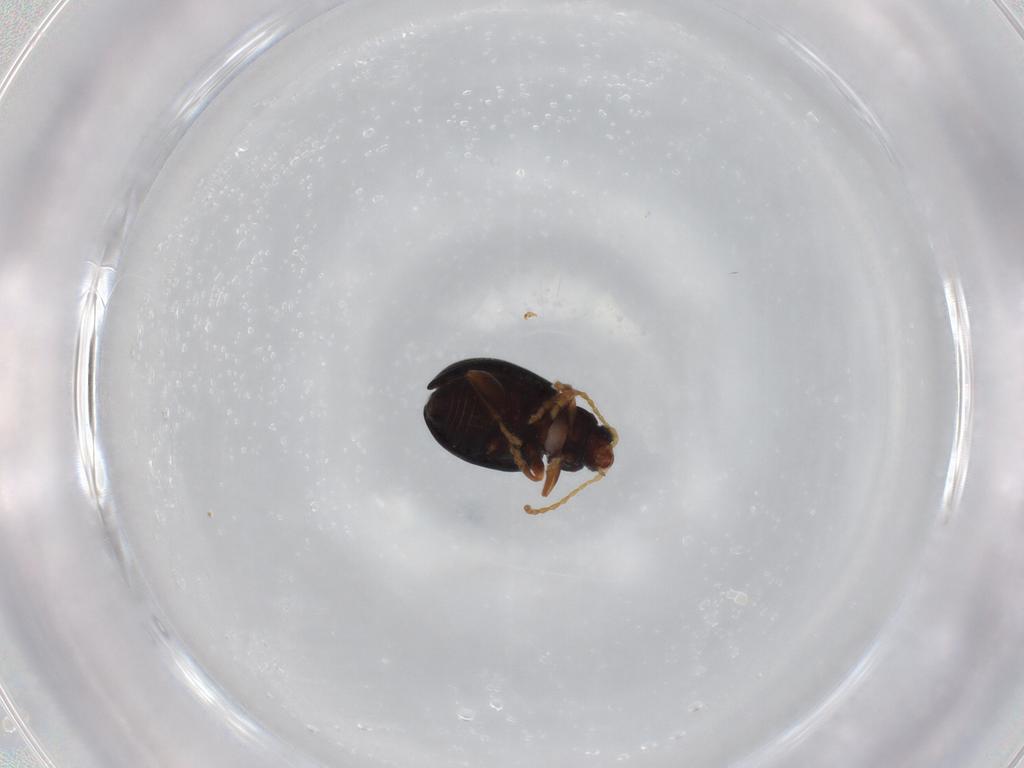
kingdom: Animalia
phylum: Arthropoda
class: Insecta
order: Coleoptera
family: Chrysomelidae
